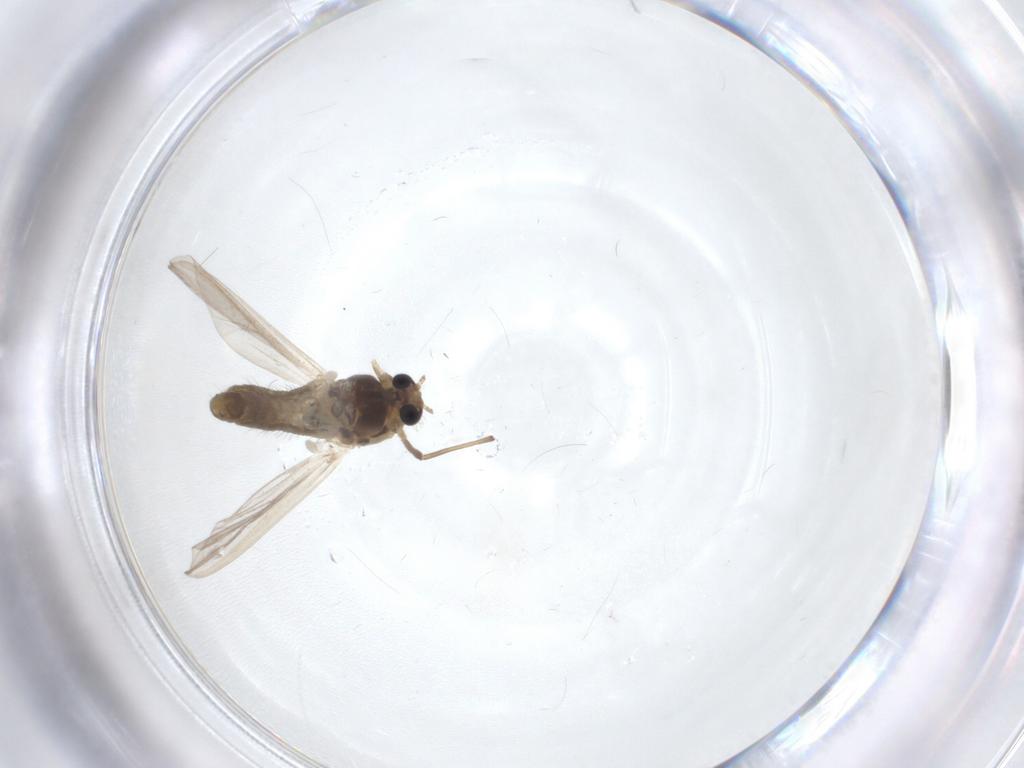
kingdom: Animalia
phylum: Arthropoda
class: Insecta
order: Diptera
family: Chironomidae
